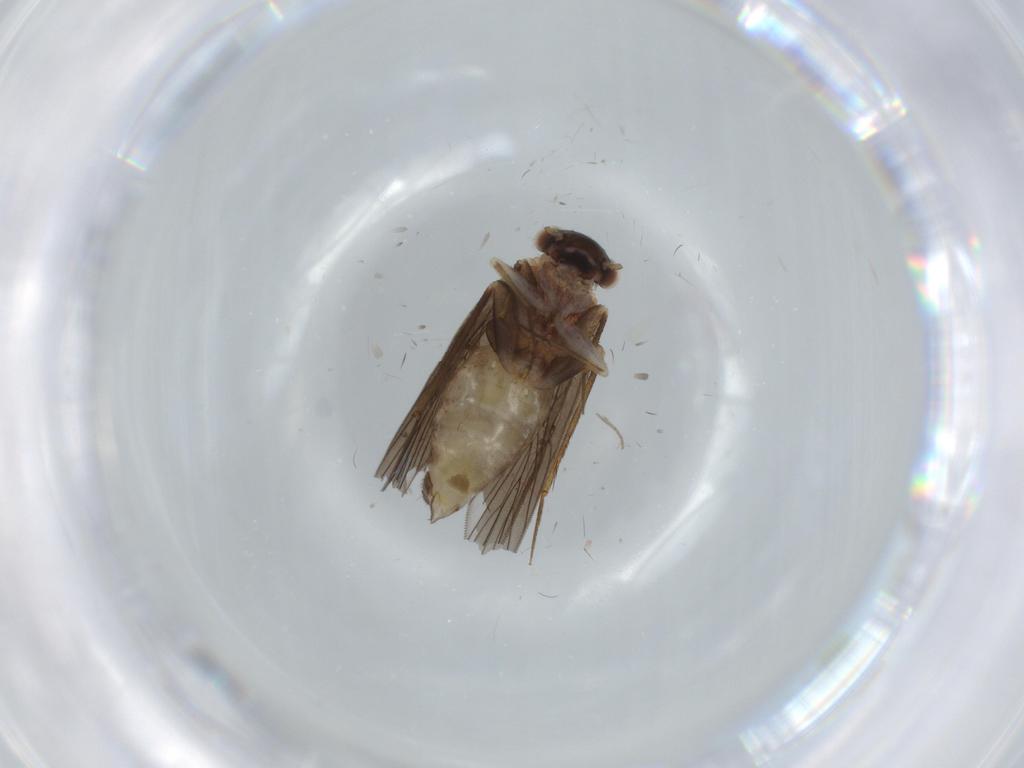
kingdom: Animalia
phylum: Arthropoda
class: Insecta
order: Psocodea
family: Lepidopsocidae
